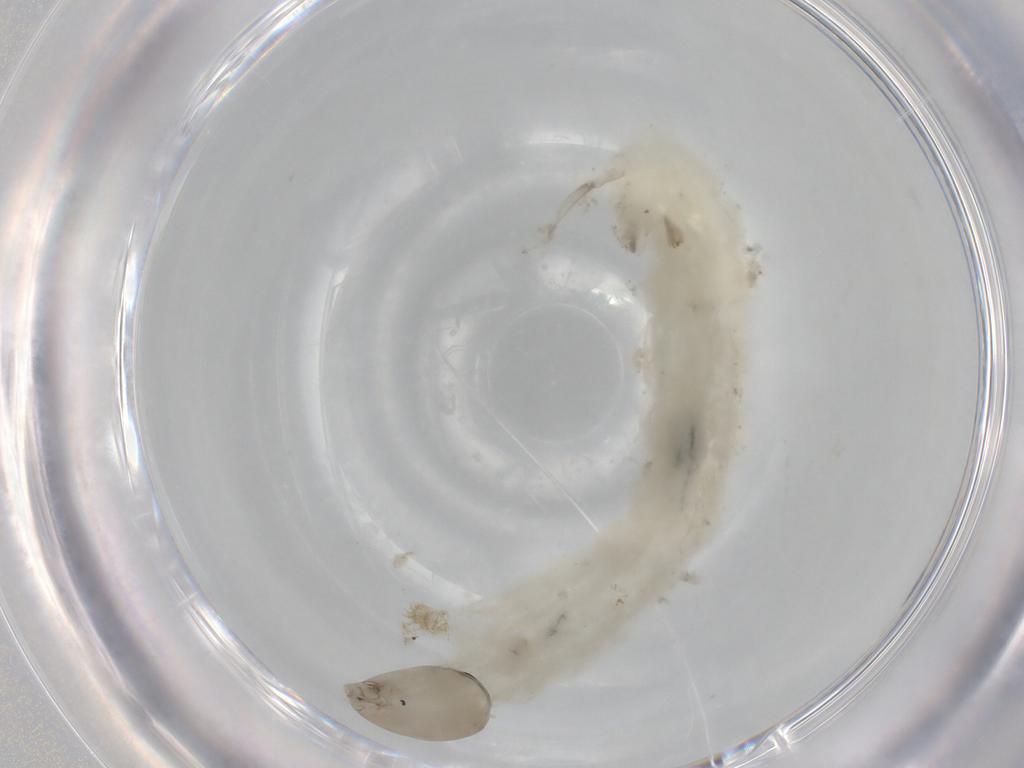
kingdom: Animalia
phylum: Arthropoda
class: Insecta
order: Diptera
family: Chironomidae
